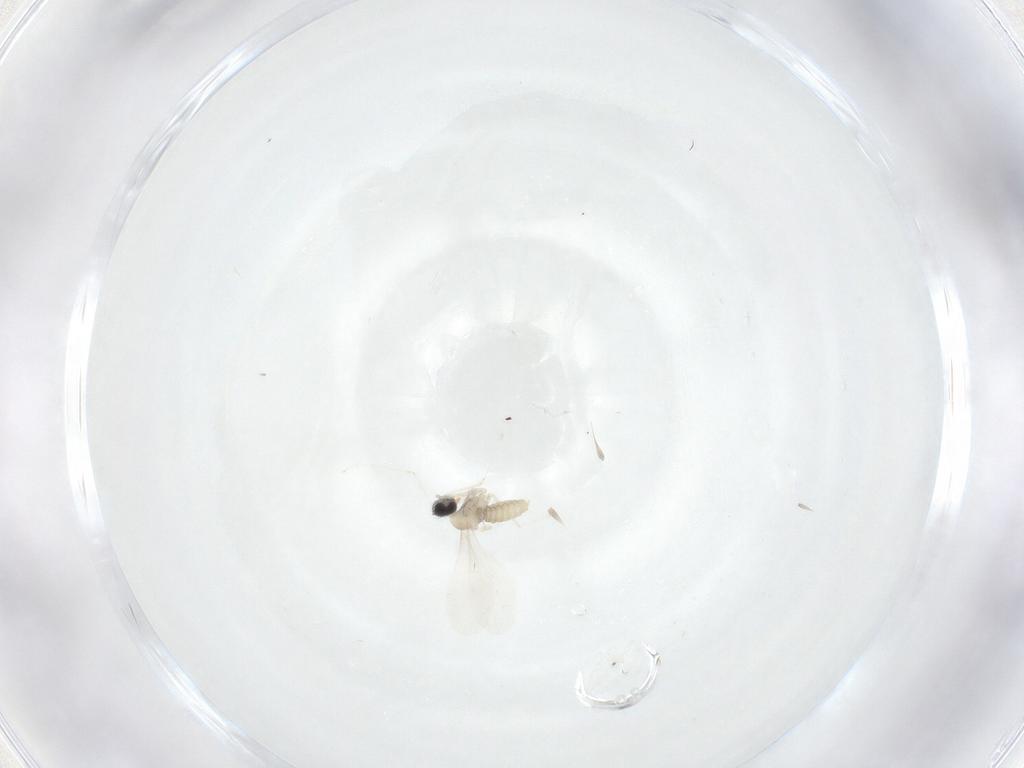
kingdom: Animalia
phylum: Arthropoda
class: Insecta
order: Diptera
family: Cecidomyiidae
